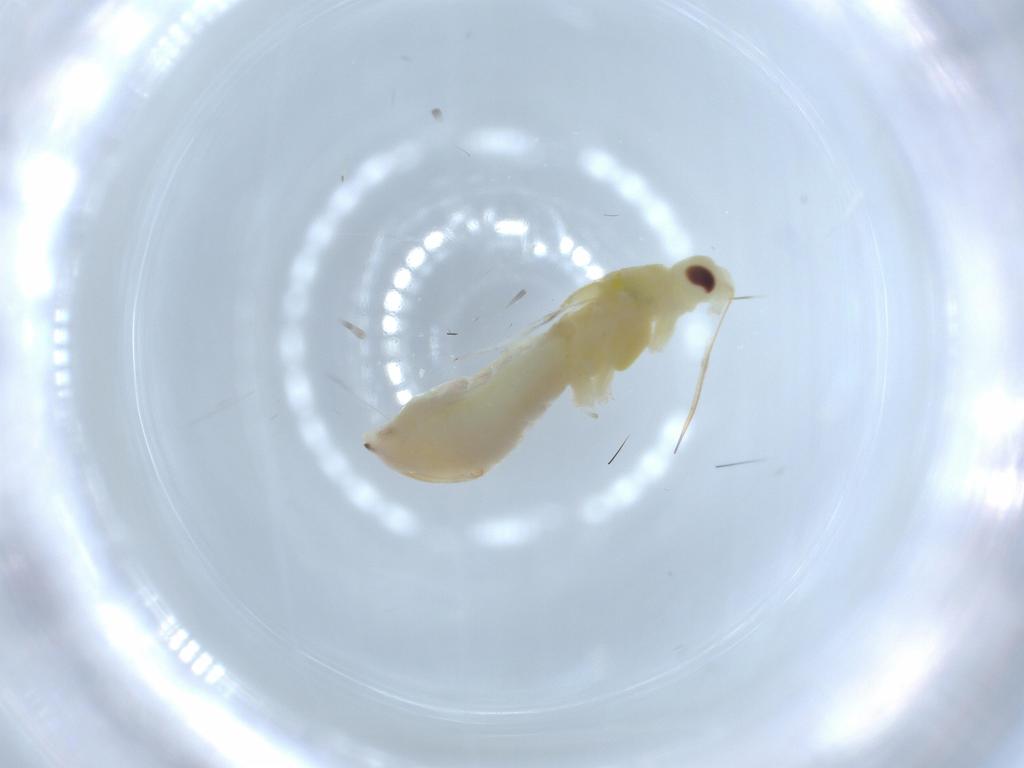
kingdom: Animalia
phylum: Arthropoda
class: Arachnida
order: Trombidiformes
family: Eriophyidae
